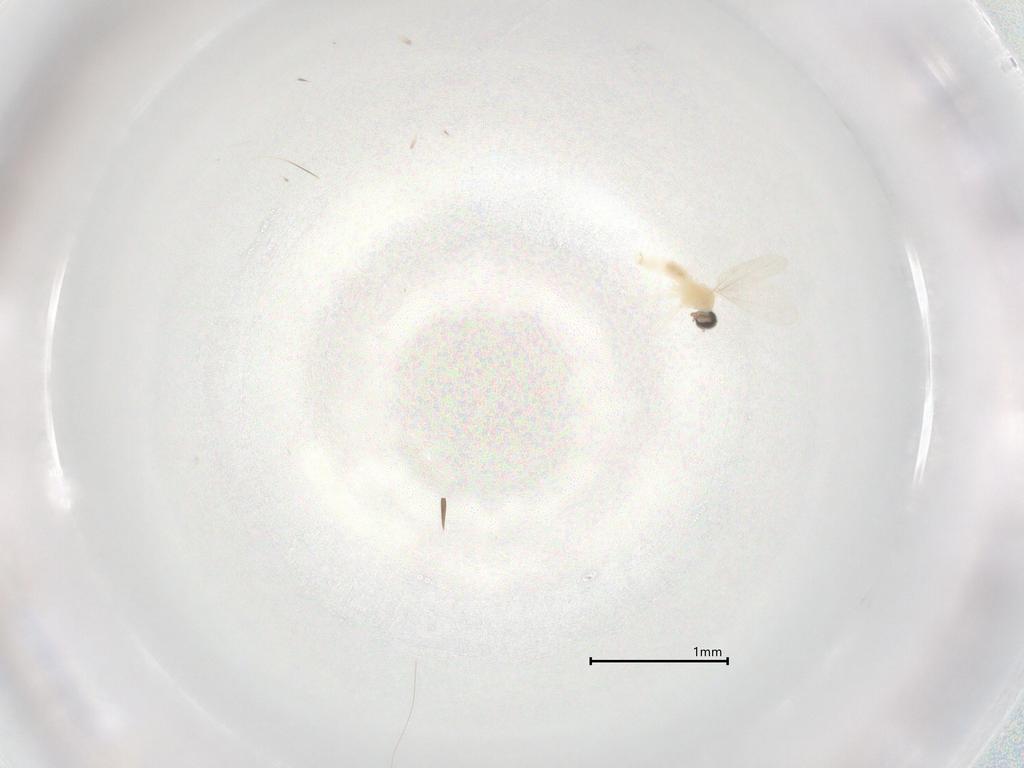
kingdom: Animalia
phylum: Arthropoda
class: Insecta
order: Diptera
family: Cecidomyiidae
